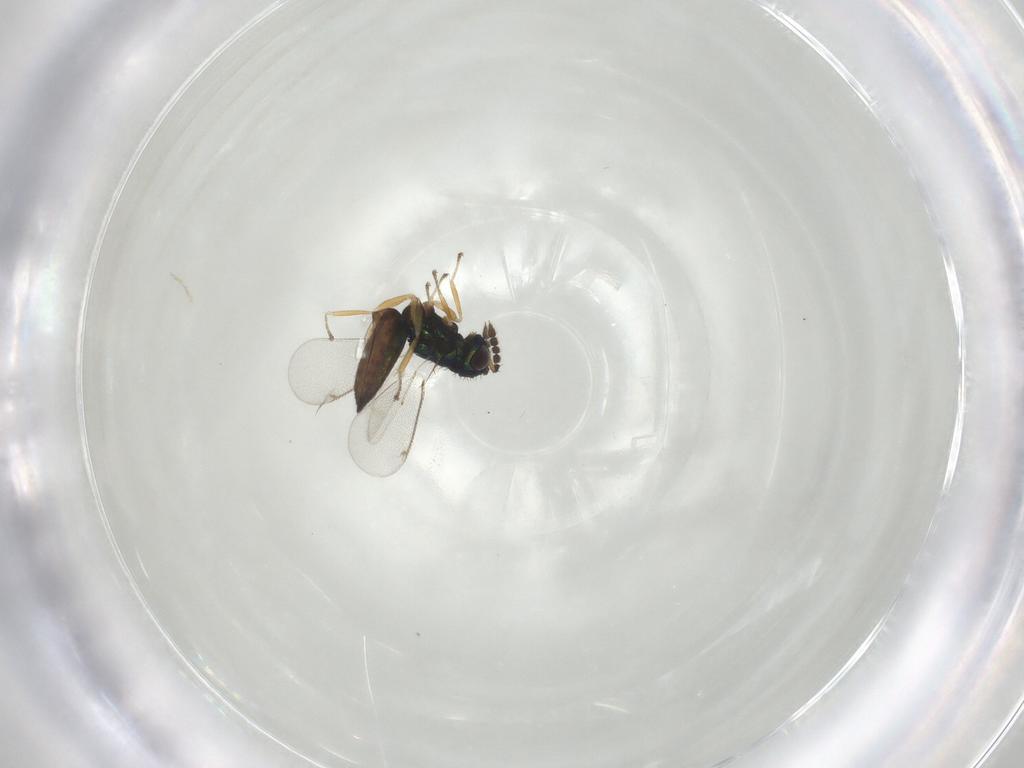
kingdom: Animalia
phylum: Arthropoda
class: Insecta
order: Hymenoptera
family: Eulophidae
